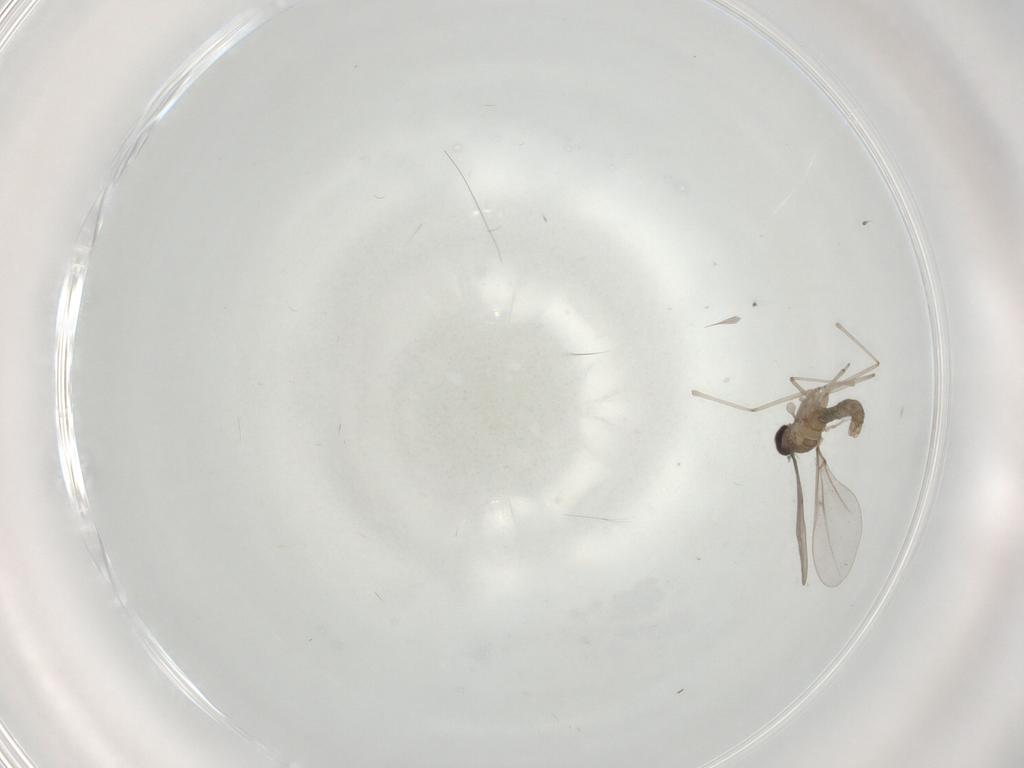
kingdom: Animalia
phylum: Arthropoda
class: Insecta
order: Diptera
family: Cecidomyiidae
